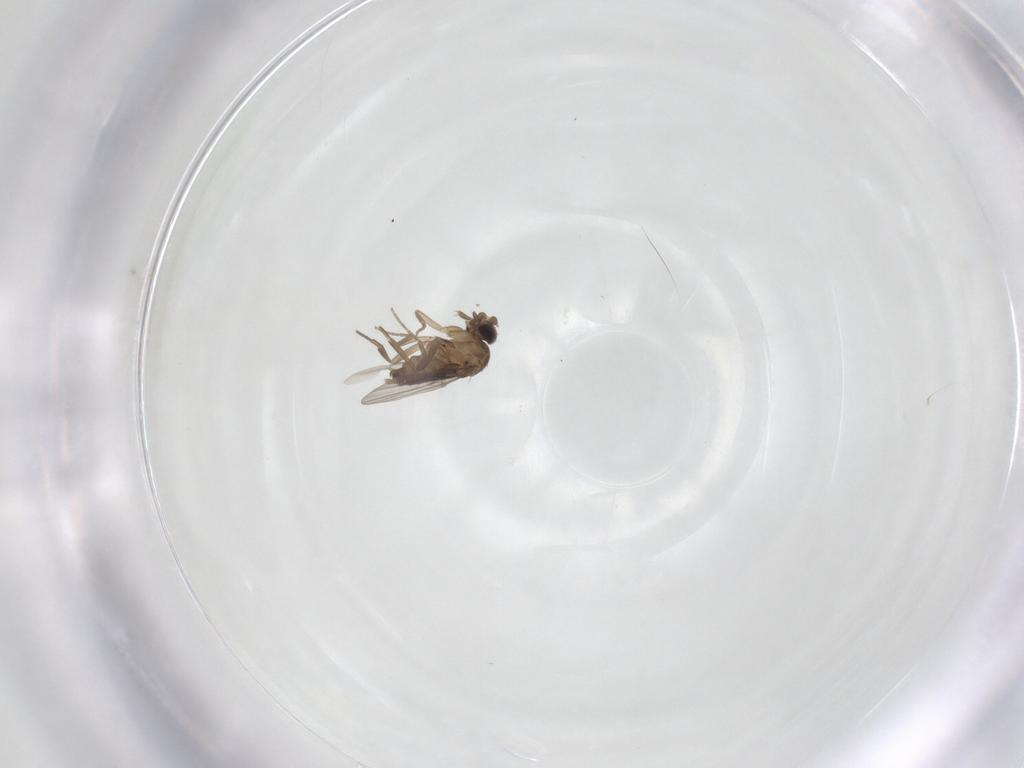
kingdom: Animalia
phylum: Arthropoda
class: Insecta
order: Diptera
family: Phoridae
